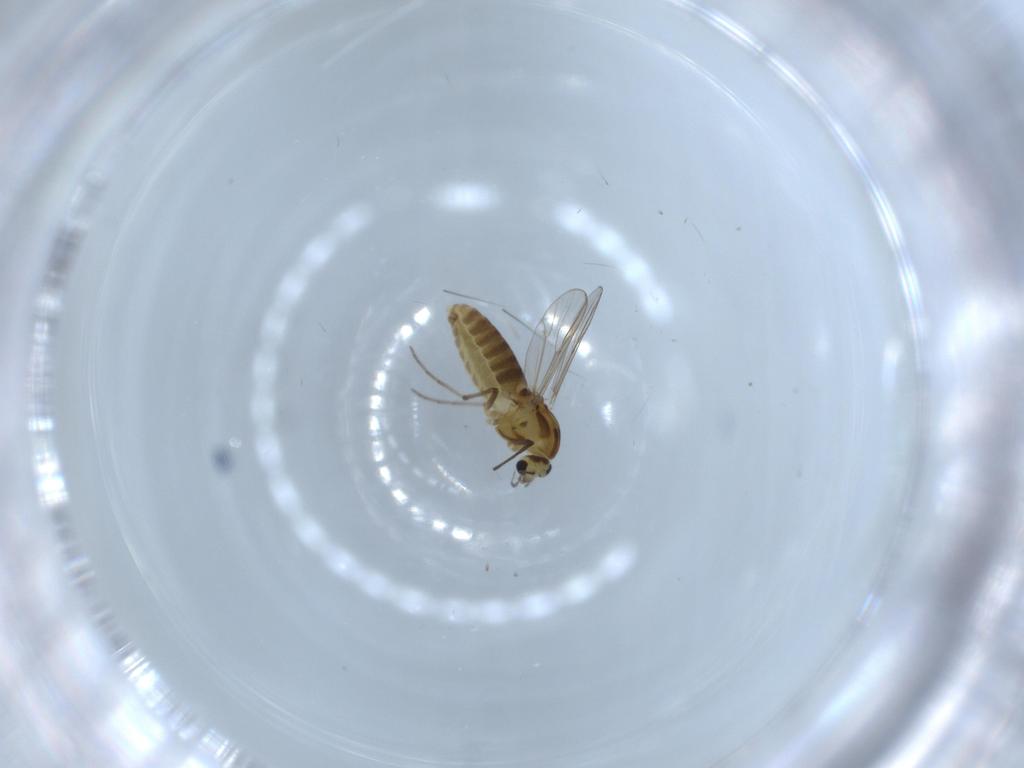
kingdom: Animalia
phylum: Arthropoda
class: Insecta
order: Diptera
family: Chironomidae
